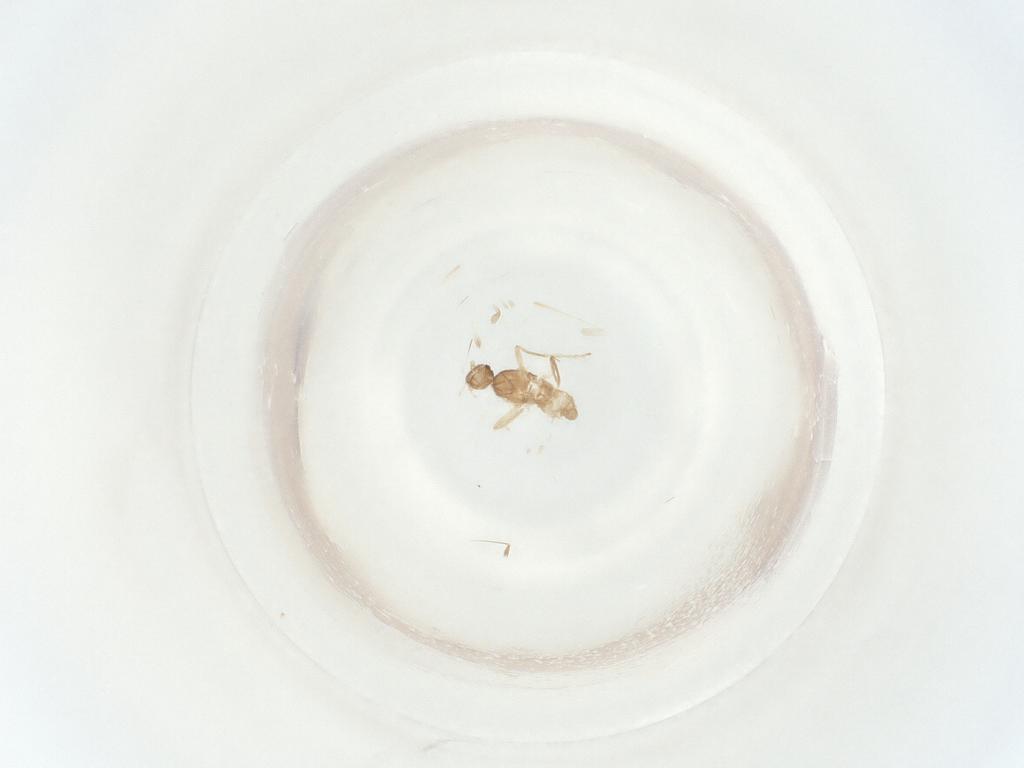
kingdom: Animalia
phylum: Arthropoda
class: Insecta
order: Diptera
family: Cecidomyiidae
